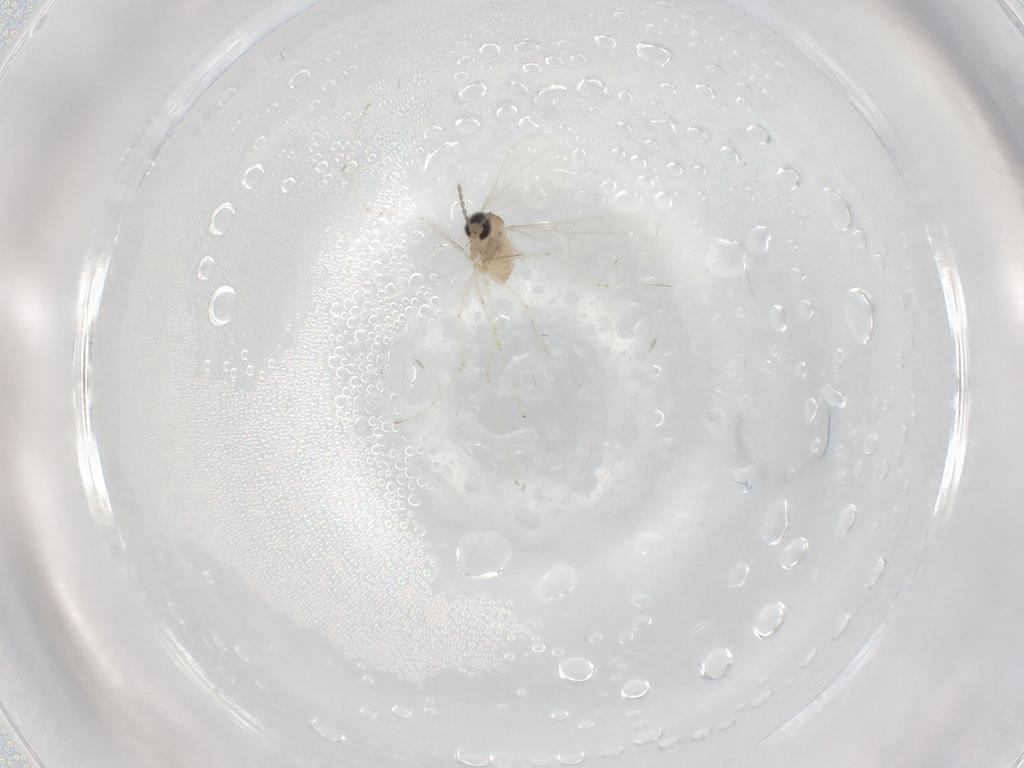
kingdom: Animalia
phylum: Arthropoda
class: Insecta
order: Diptera
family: Cecidomyiidae
